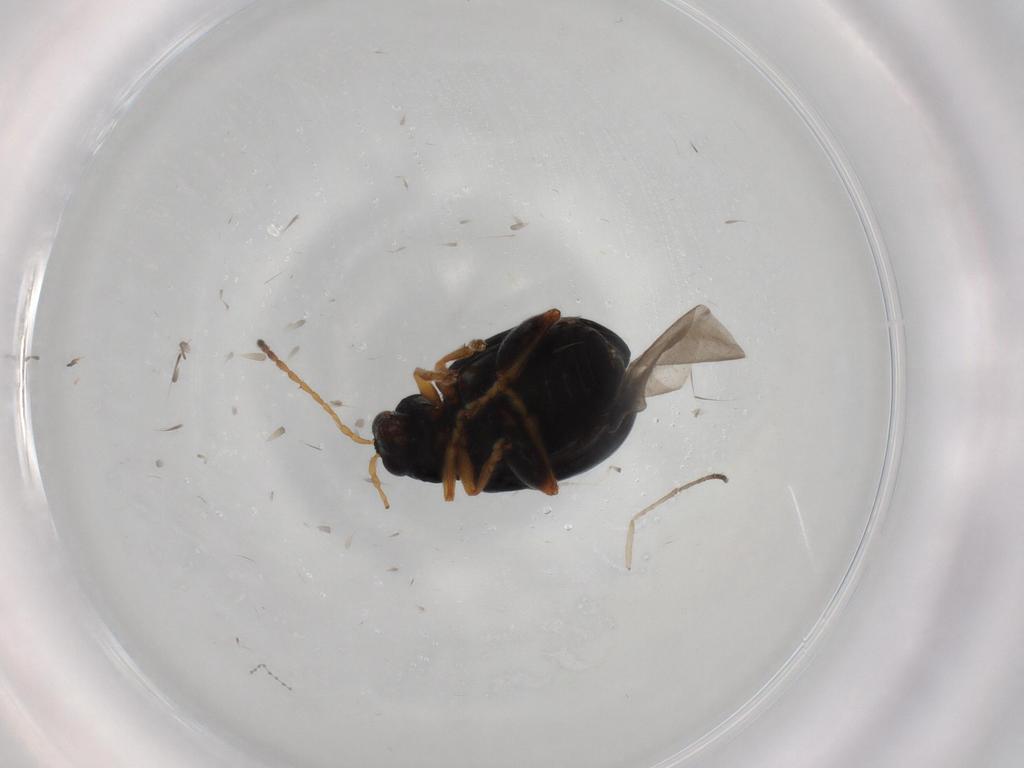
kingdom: Animalia
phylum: Arthropoda
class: Insecta
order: Coleoptera
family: Chrysomelidae
